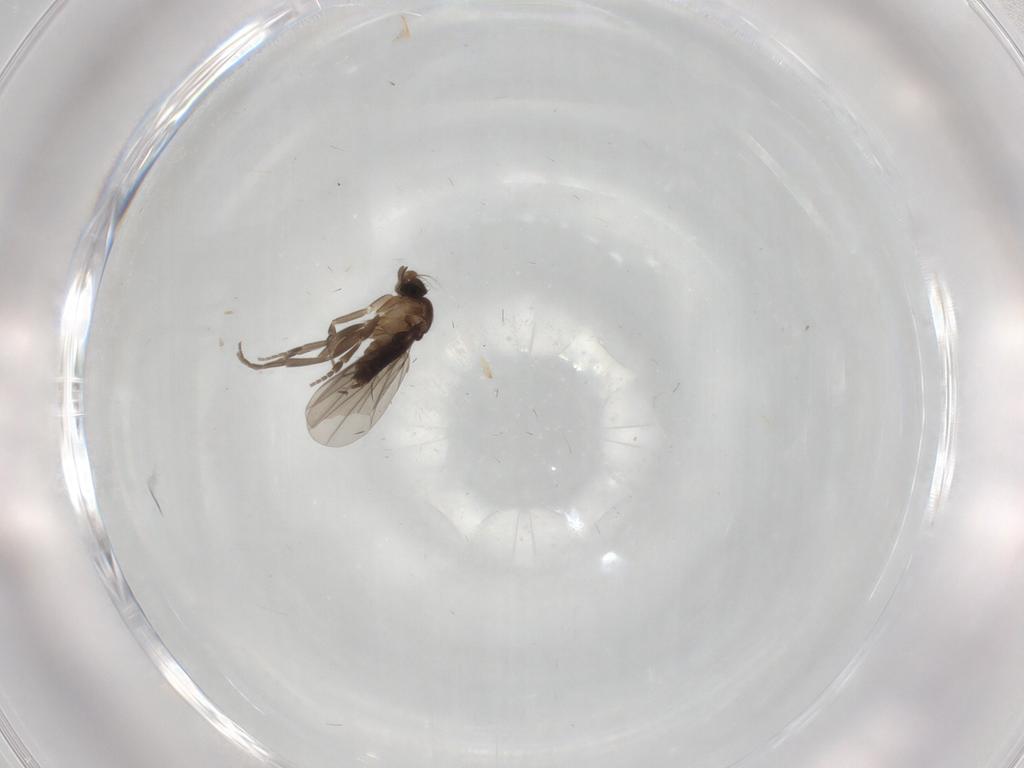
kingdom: Animalia
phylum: Arthropoda
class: Insecta
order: Diptera
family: Phoridae
